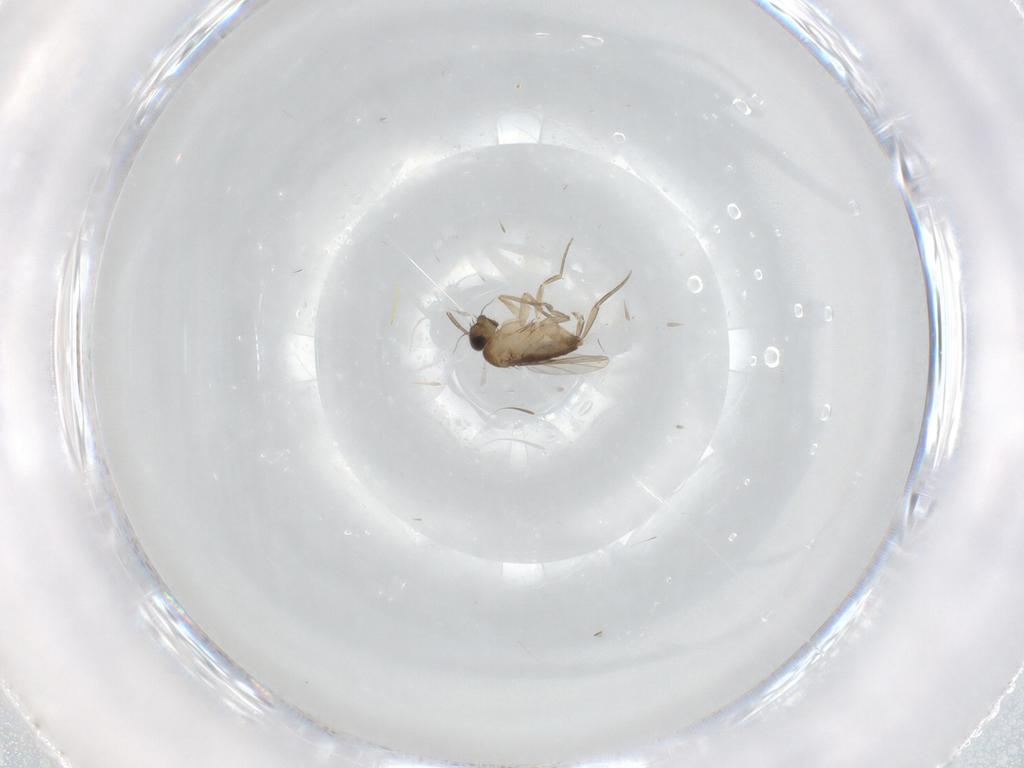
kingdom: Animalia
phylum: Arthropoda
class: Insecta
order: Diptera
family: Phoridae
